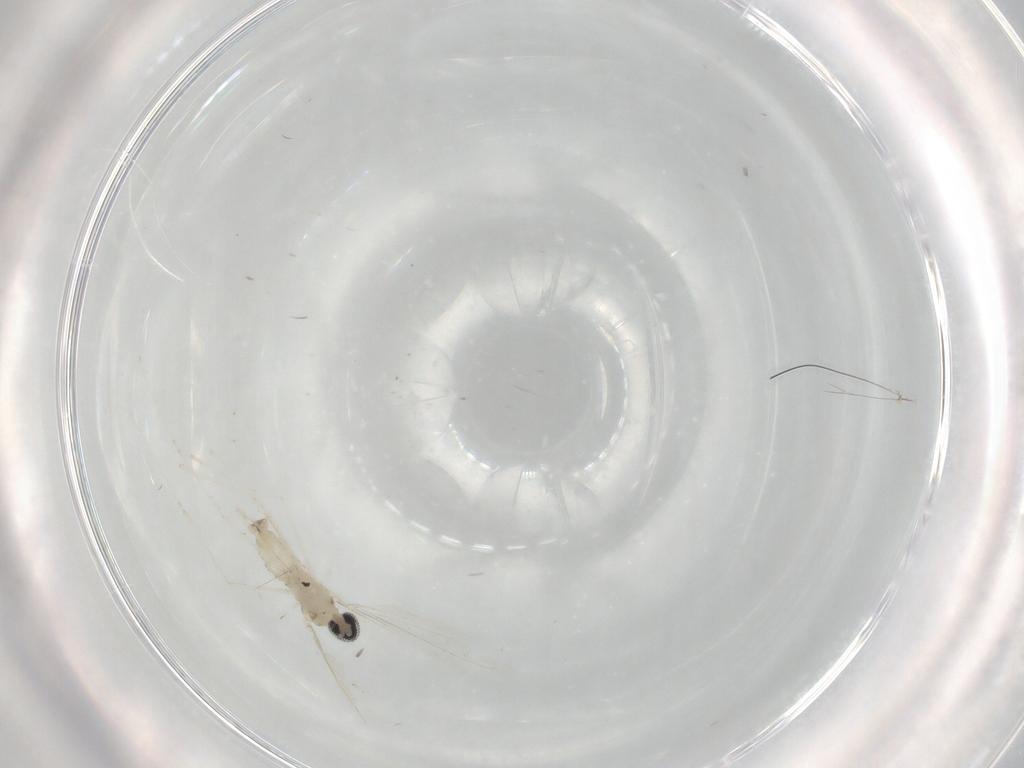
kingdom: Animalia
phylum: Arthropoda
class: Insecta
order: Diptera
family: Cecidomyiidae
